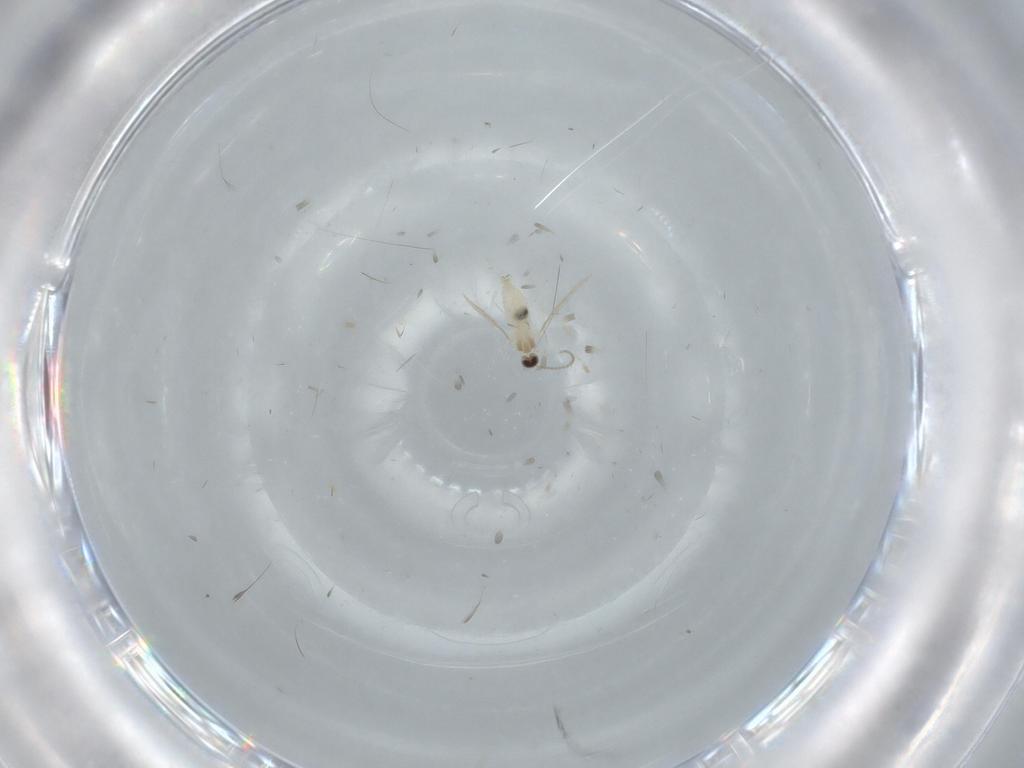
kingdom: Animalia
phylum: Arthropoda
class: Insecta
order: Diptera
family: Cecidomyiidae
